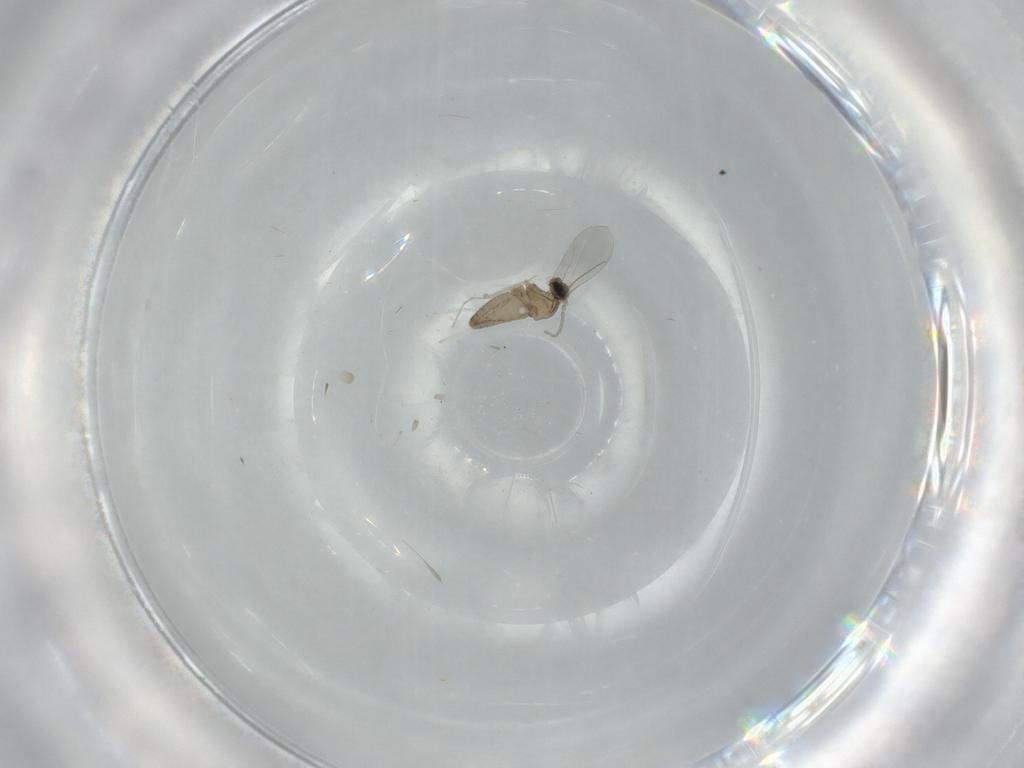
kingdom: Animalia
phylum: Arthropoda
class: Insecta
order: Diptera
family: Cecidomyiidae
